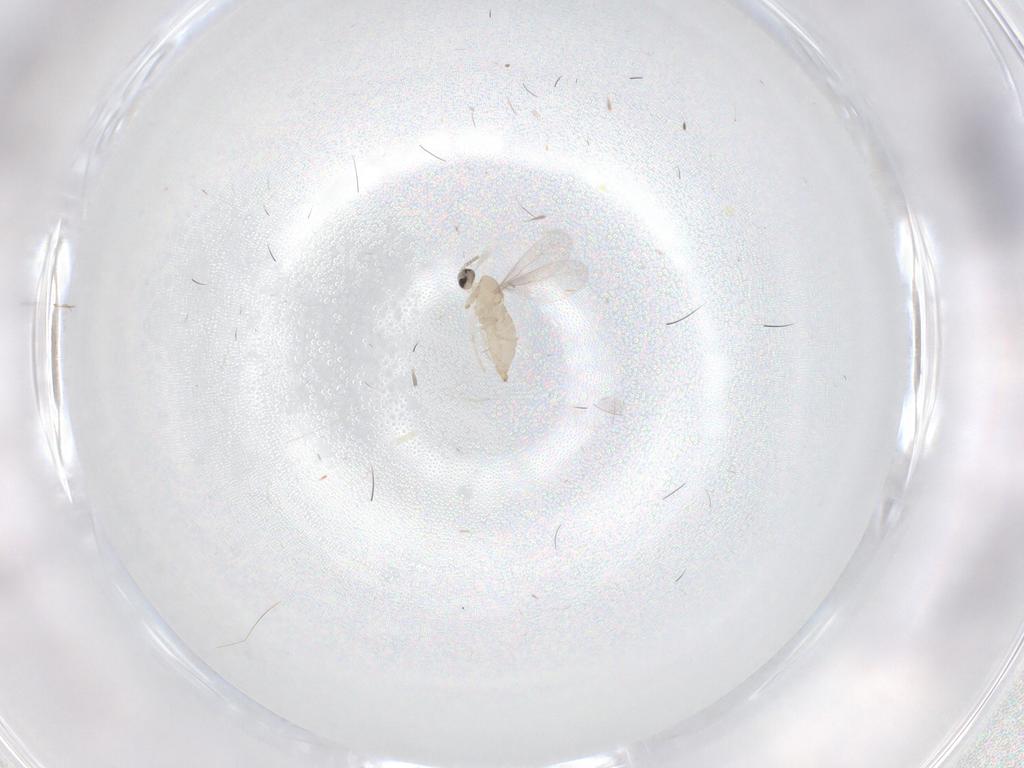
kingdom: Animalia
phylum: Arthropoda
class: Insecta
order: Diptera
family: Cecidomyiidae
